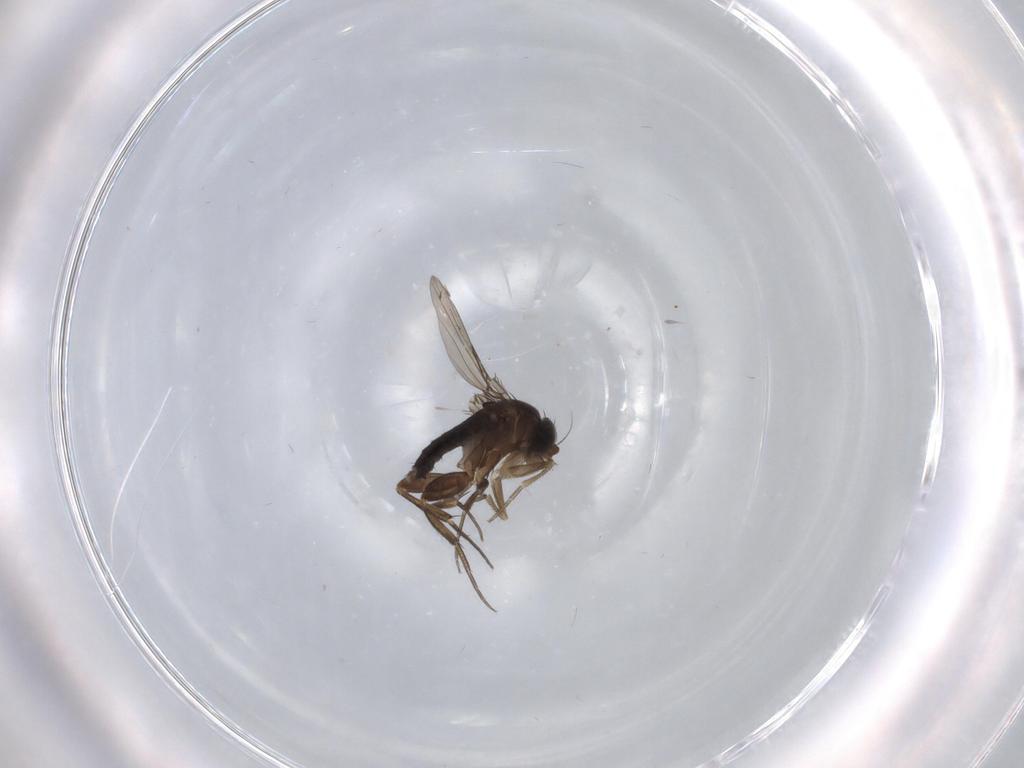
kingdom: Animalia
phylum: Arthropoda
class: Insecta
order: Diptera
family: Phoridae
